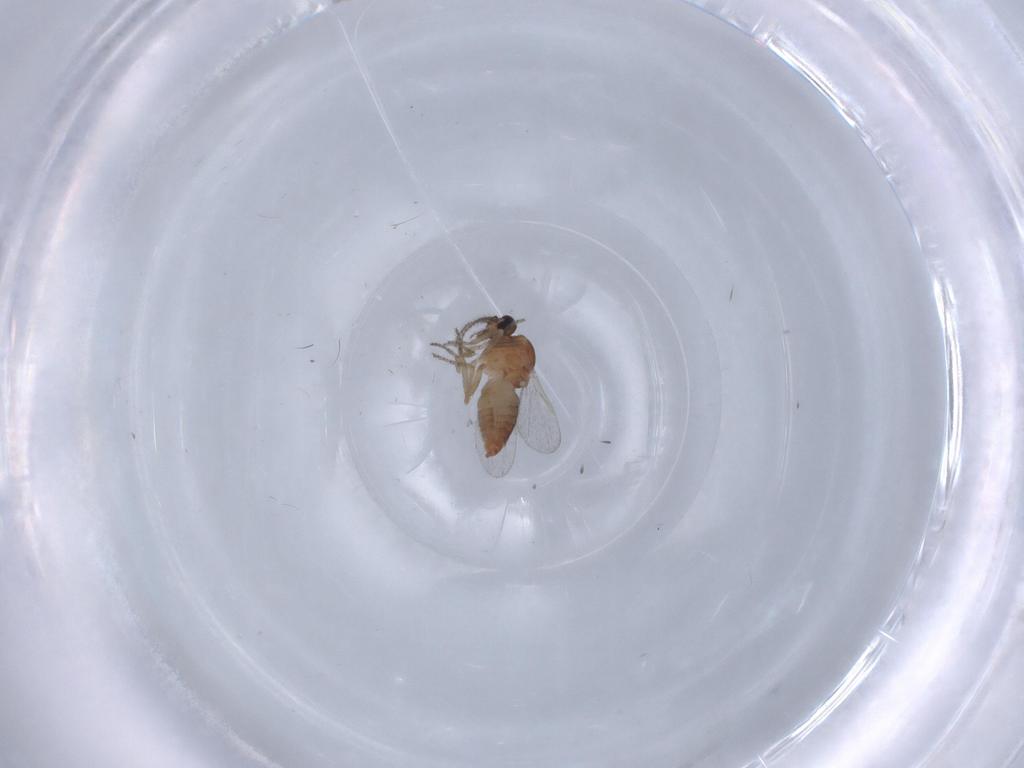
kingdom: Animalia
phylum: Arthropoda
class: Insecta
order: Diptera
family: Ceratopogonidae
